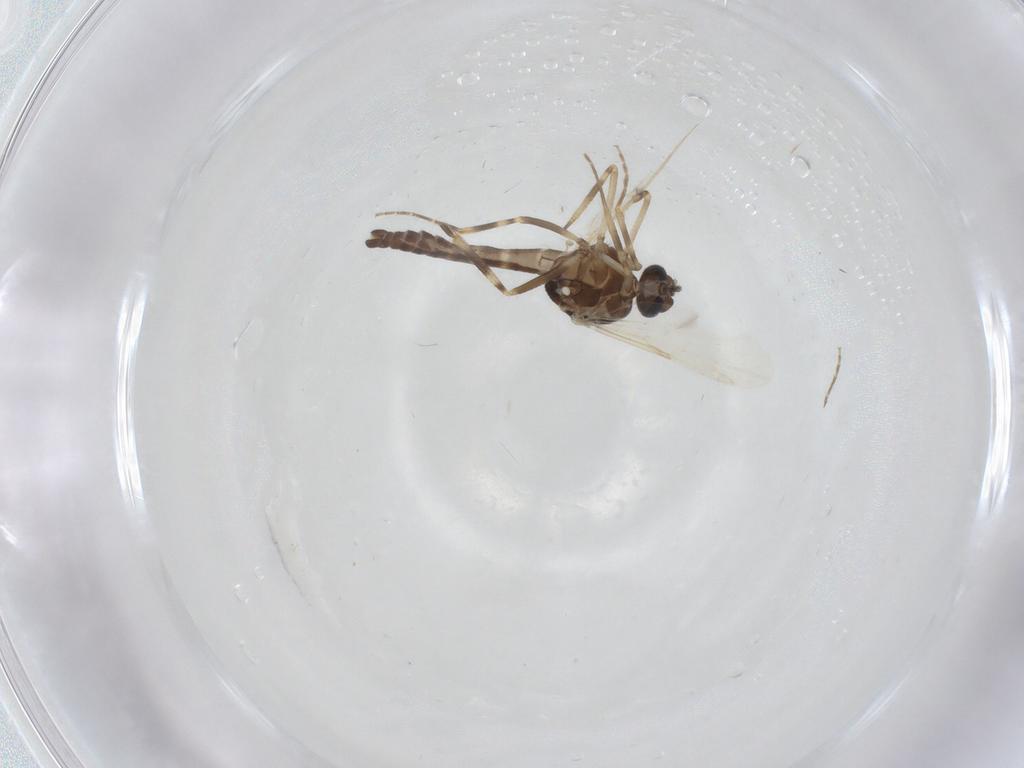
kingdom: Animalia
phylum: Arthropoda
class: Insecta
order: Diptera
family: Ceratopogonidae
